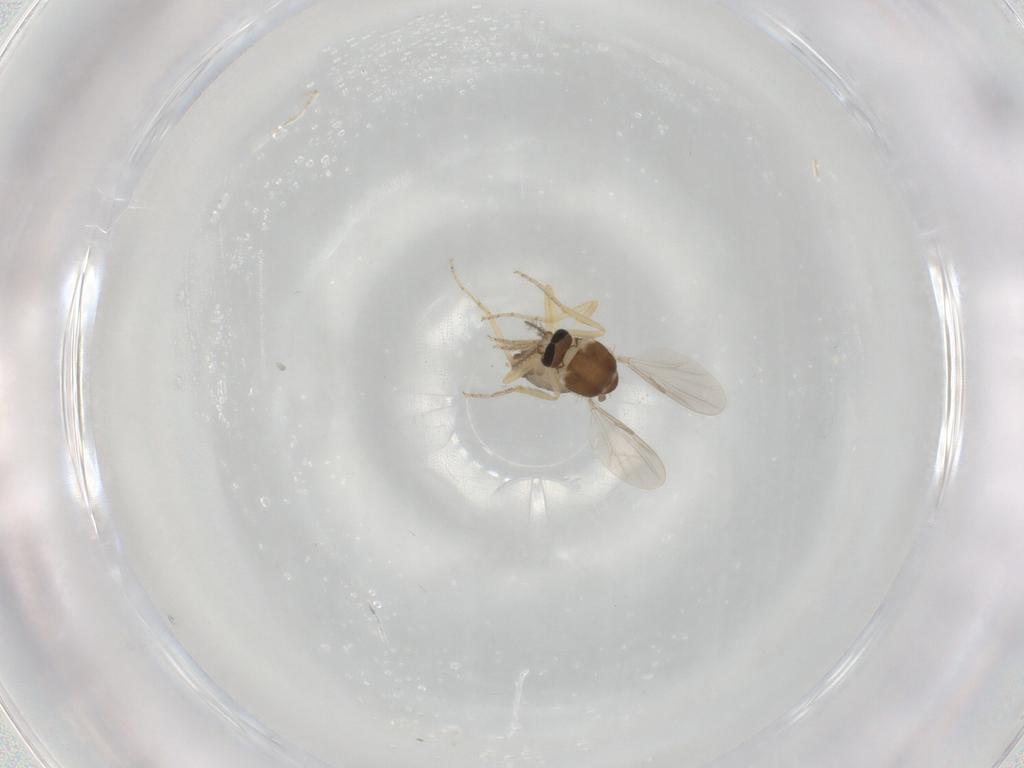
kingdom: Animalia
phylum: Arthropoda
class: Insecta
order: Diptera
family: Ceratopogonidae
